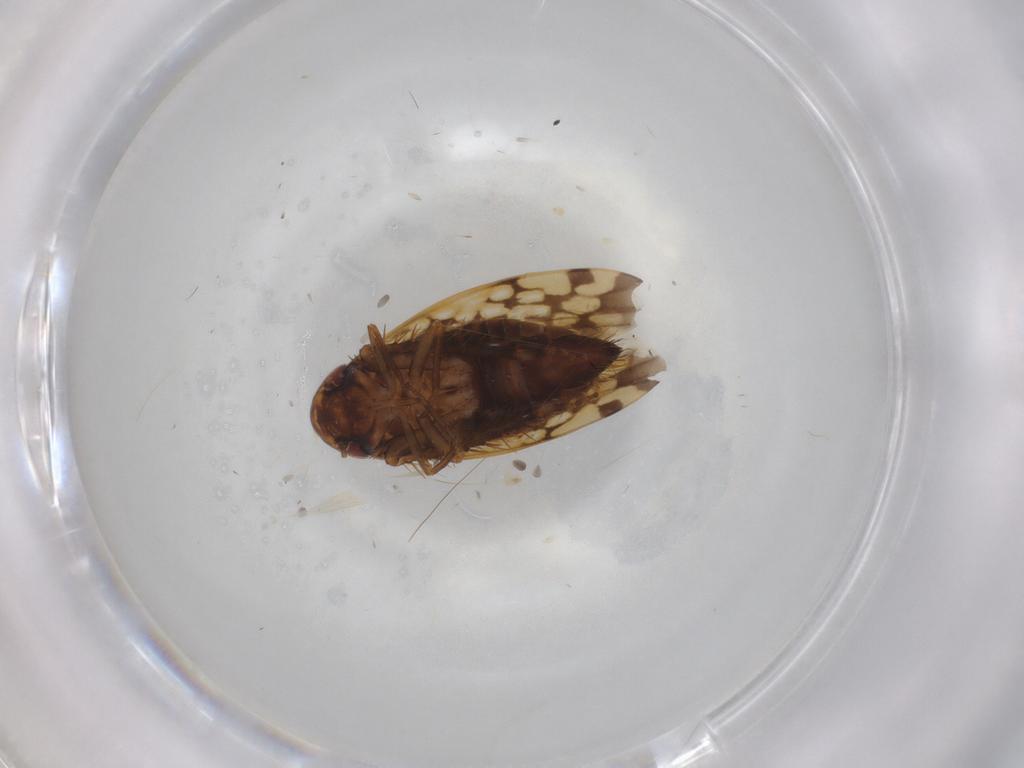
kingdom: Animalia
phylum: Arthropoda
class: Insecta
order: Hemiptera
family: Cicadellidae
